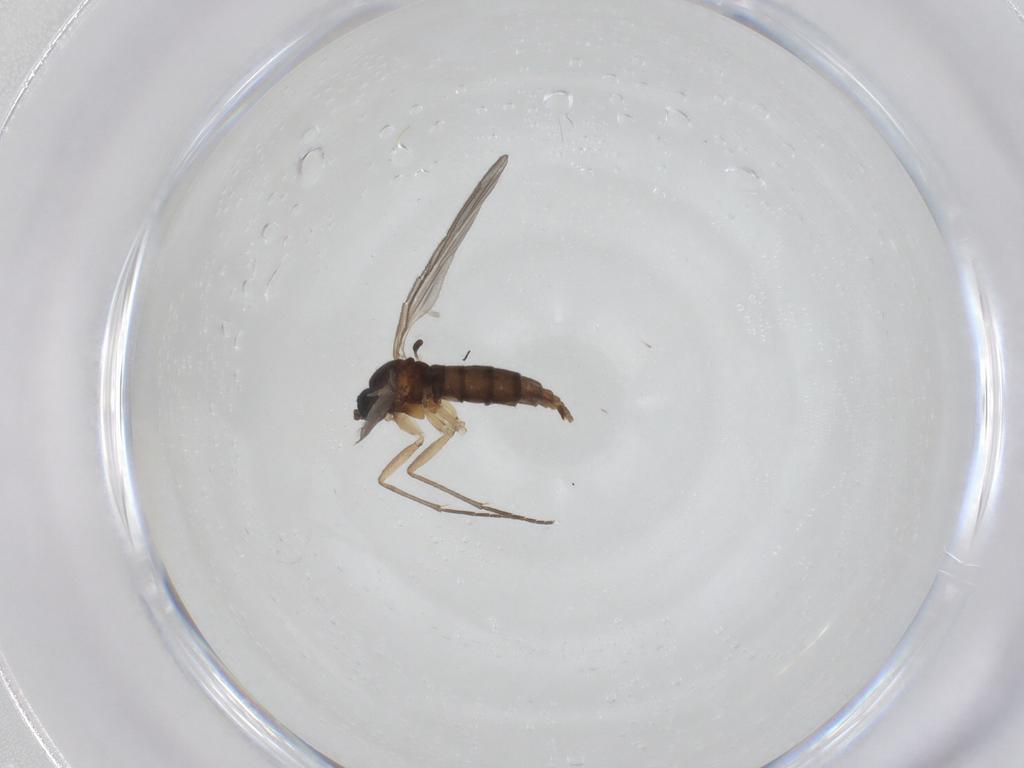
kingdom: Animalia
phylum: Arthropoda
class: Insecta
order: Diptera
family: Sciaridae
